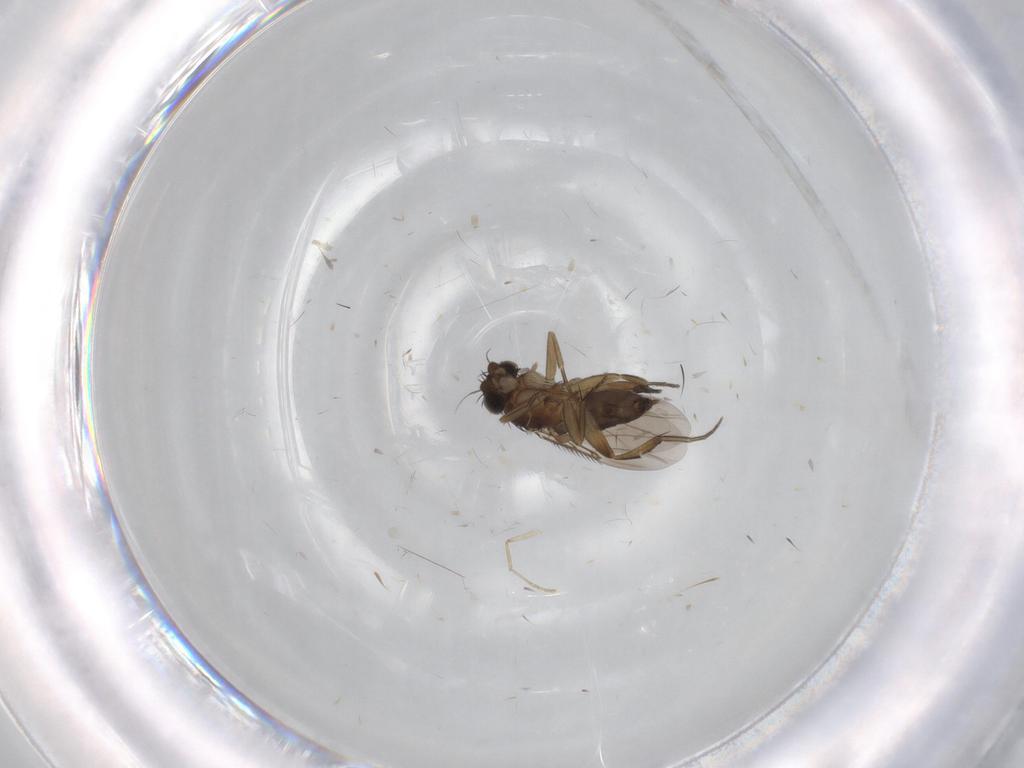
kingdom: Animalia
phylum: Arthropoda
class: Insecta
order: Diptera
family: Phoridae
